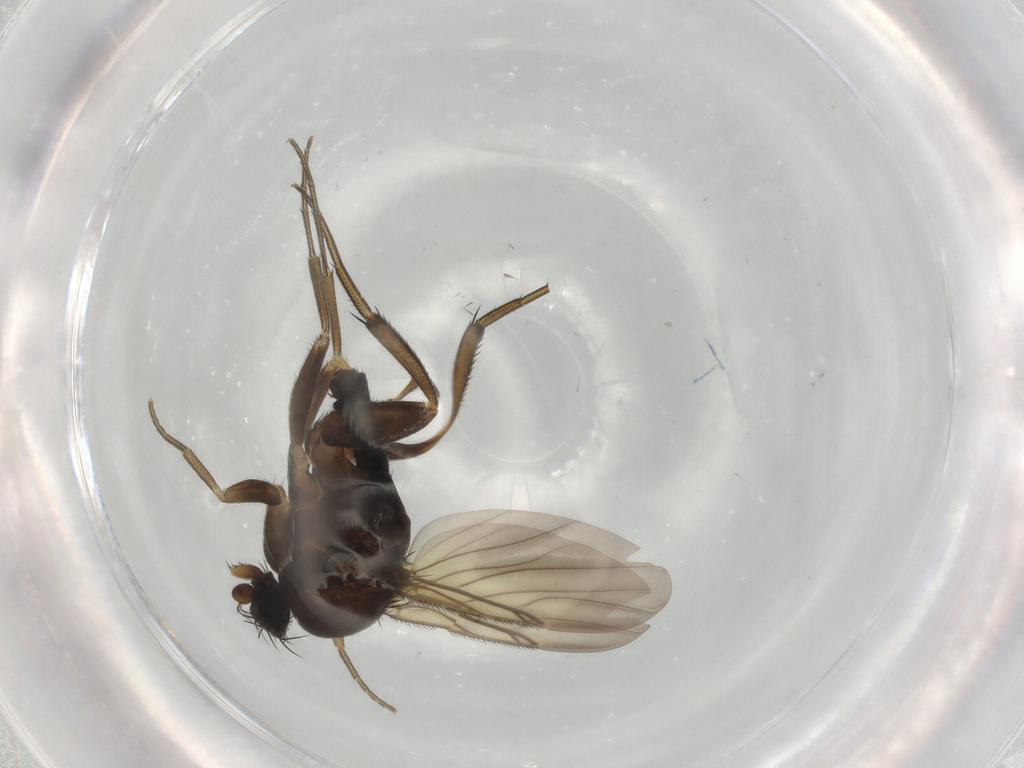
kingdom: Animalia
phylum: Arthropoda
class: Insecta
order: Diptera
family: Phoridae
